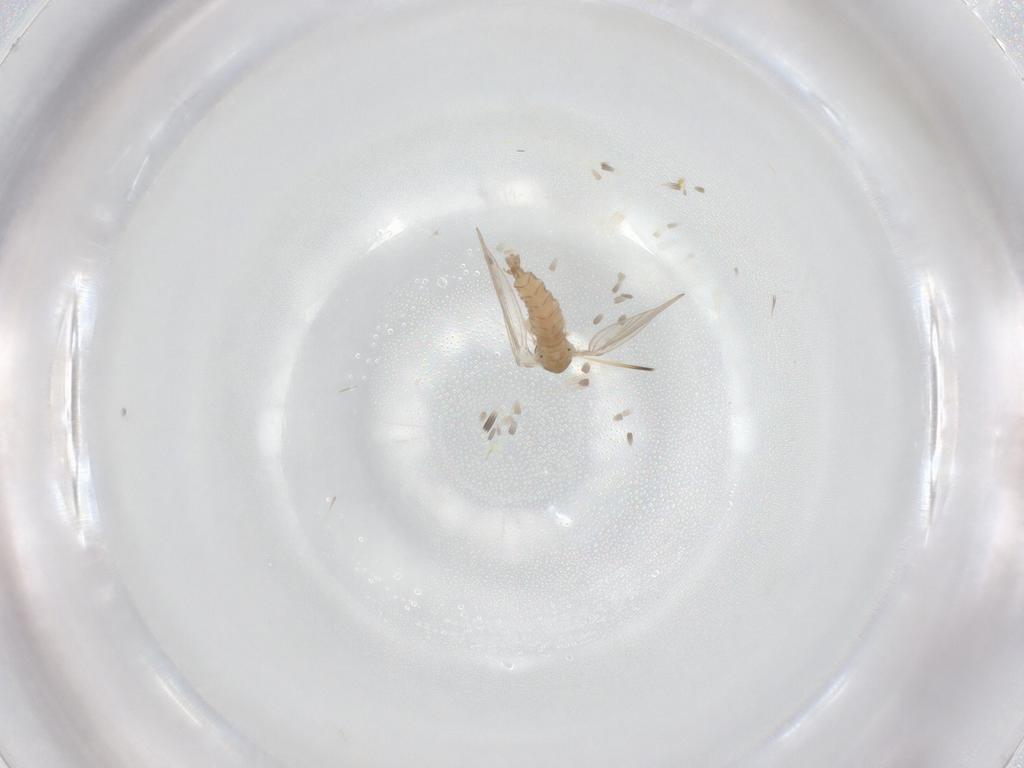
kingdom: Animalia
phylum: Arthropoda
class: Insecta
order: Diptera
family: Psychodidae
